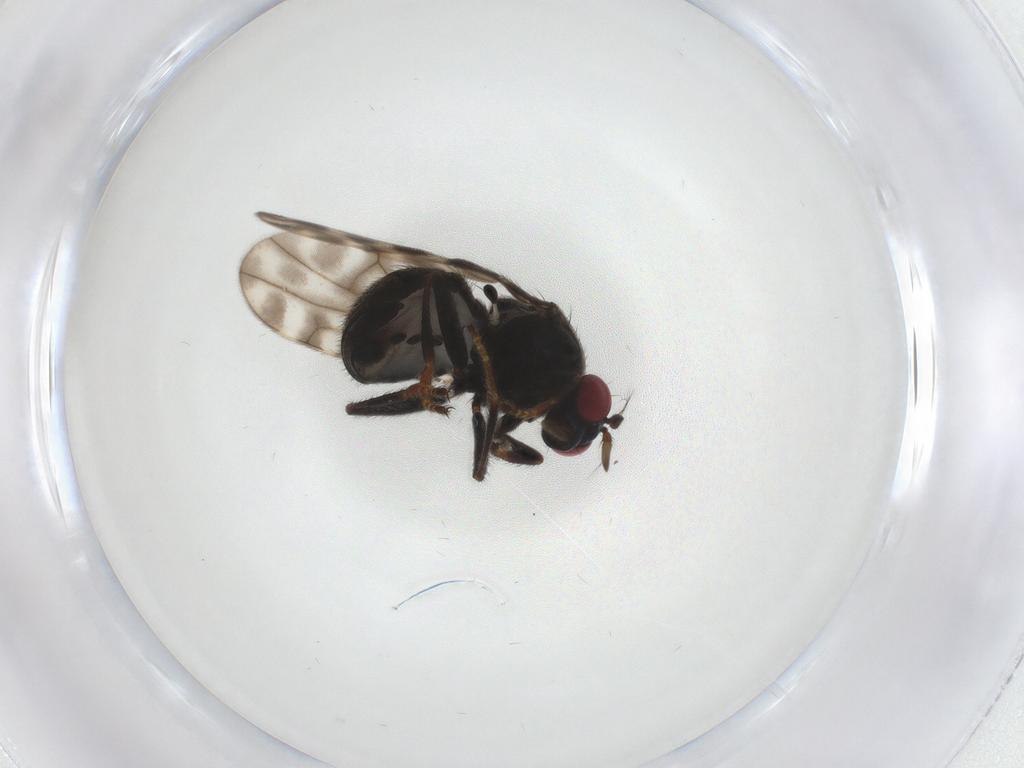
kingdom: Animalia
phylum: Arthropoda
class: Insecta
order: Diptera
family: Ephydridae
